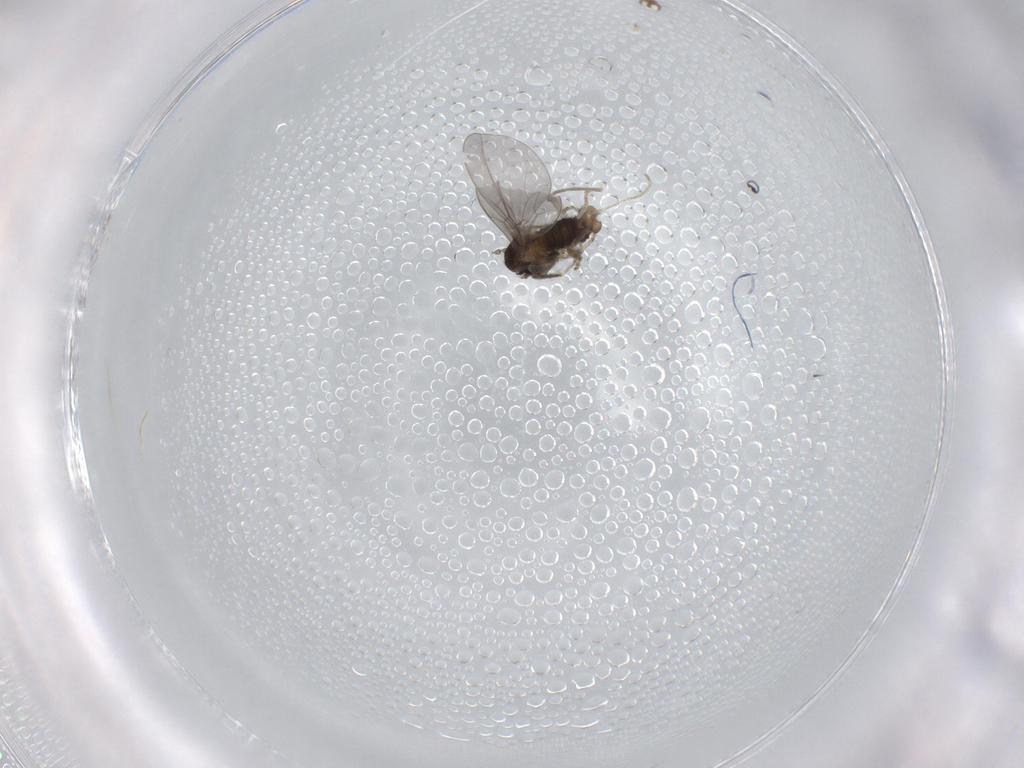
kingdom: Animalia
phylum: Arthropoda
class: Insecta
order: Diptera
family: Cecidomyiidae
